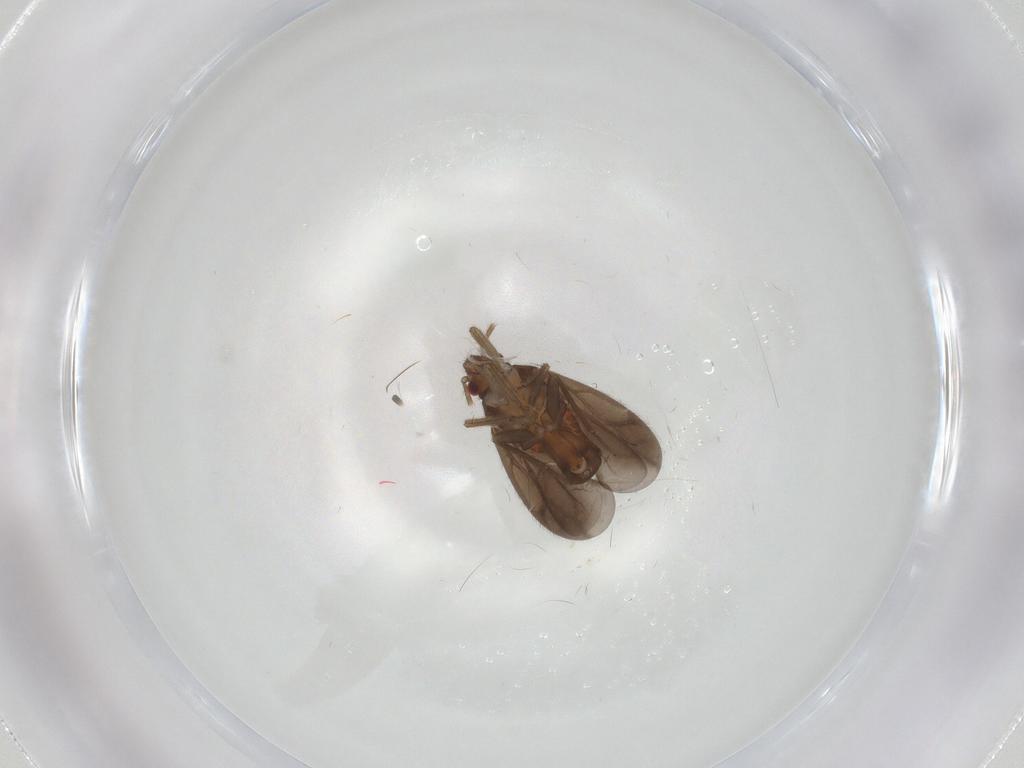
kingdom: Animalia
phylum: Arthropoda
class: Insecta
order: Hemiptera
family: Ceratocombidae
